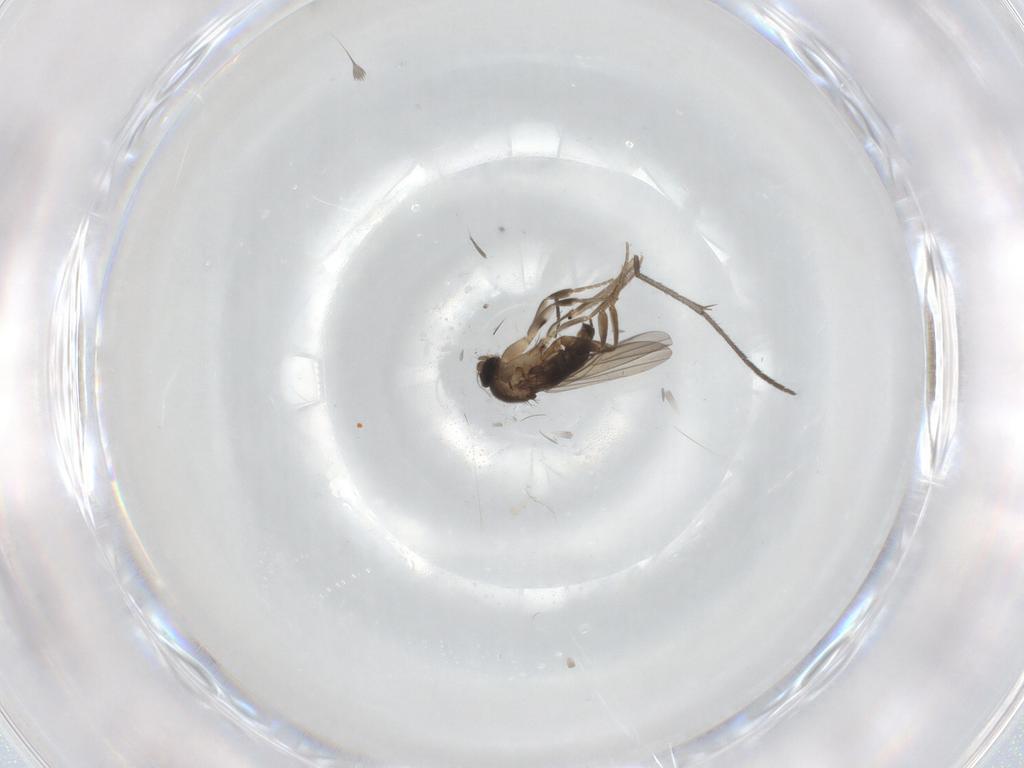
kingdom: Animalia
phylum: Arthropoda
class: Insecta
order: Diptera
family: Sciaridae
